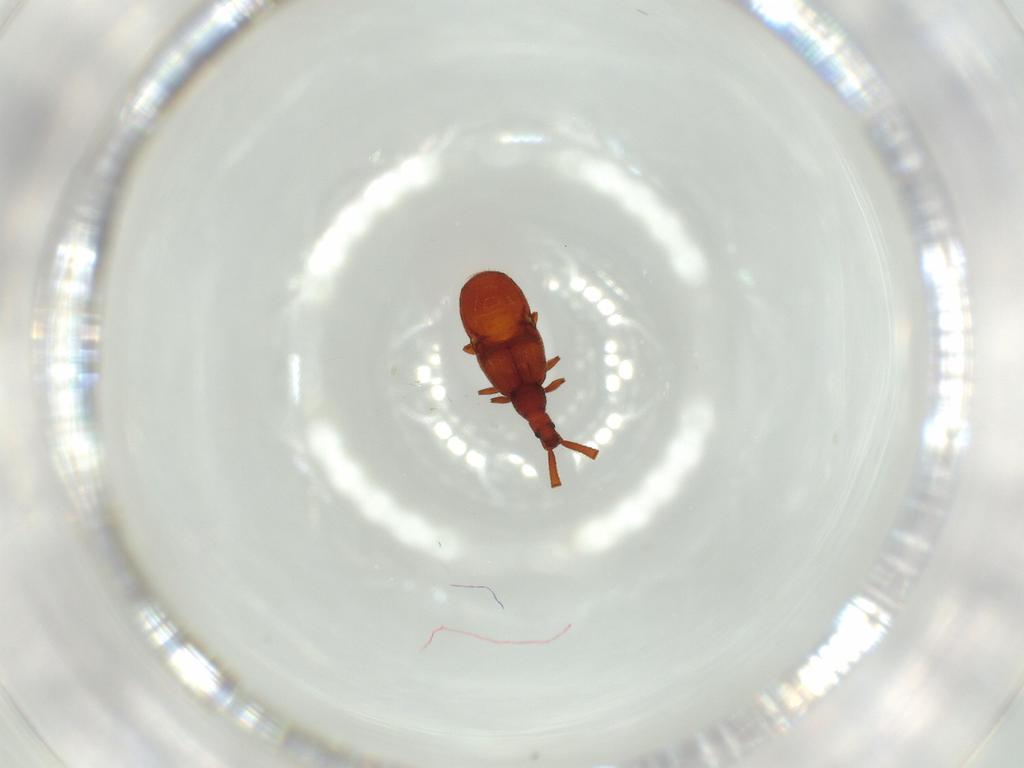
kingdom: Animalia
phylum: Arthropoda
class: Insecta
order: Coleoptera
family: Staphylinidae
